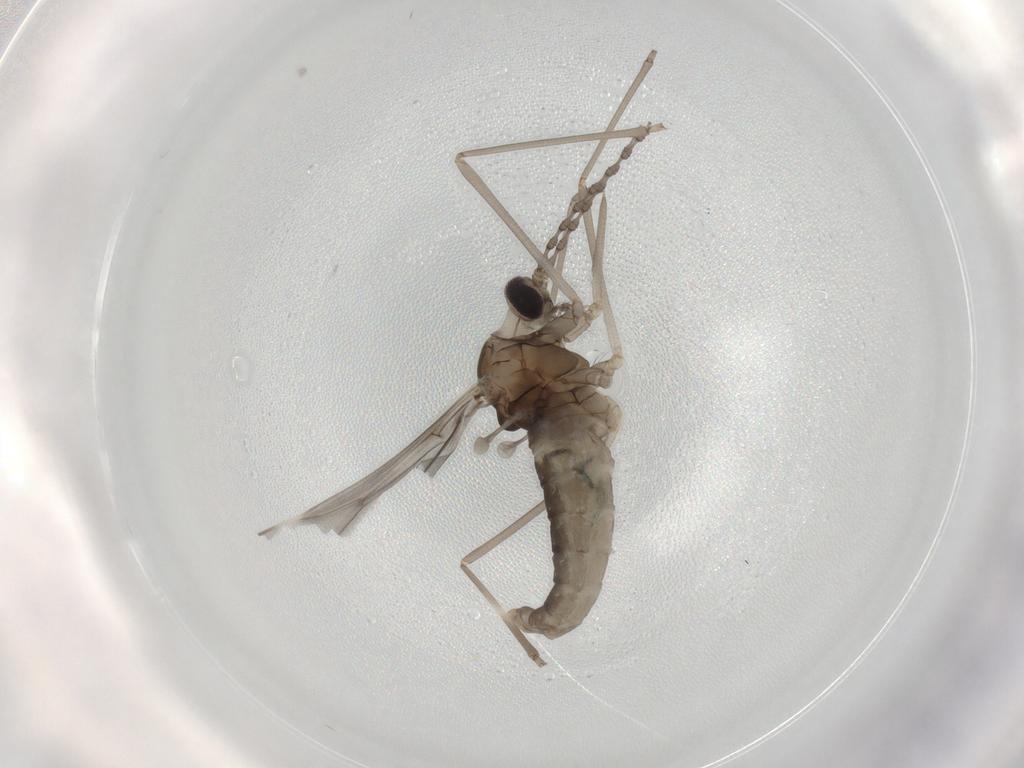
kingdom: Animalia
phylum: Arthropoda
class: Insecta
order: Diptera
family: Cecidomyiidae
